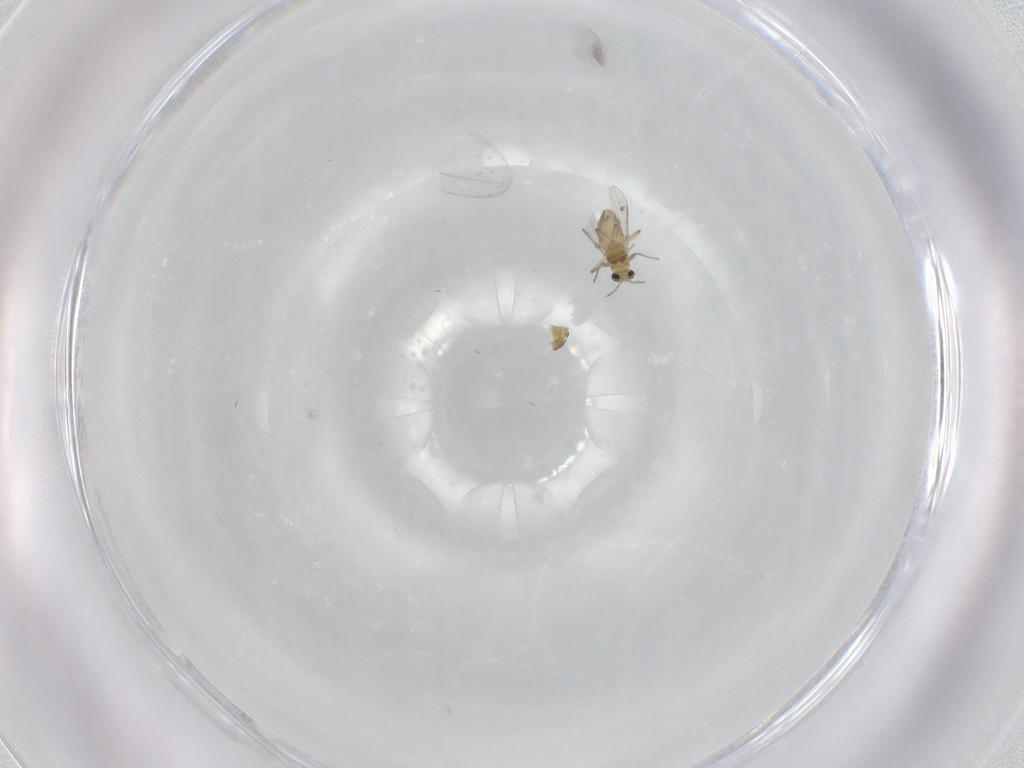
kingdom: Animalia
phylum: Arthropoda
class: Insecta
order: Diptera
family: Chironomidae
